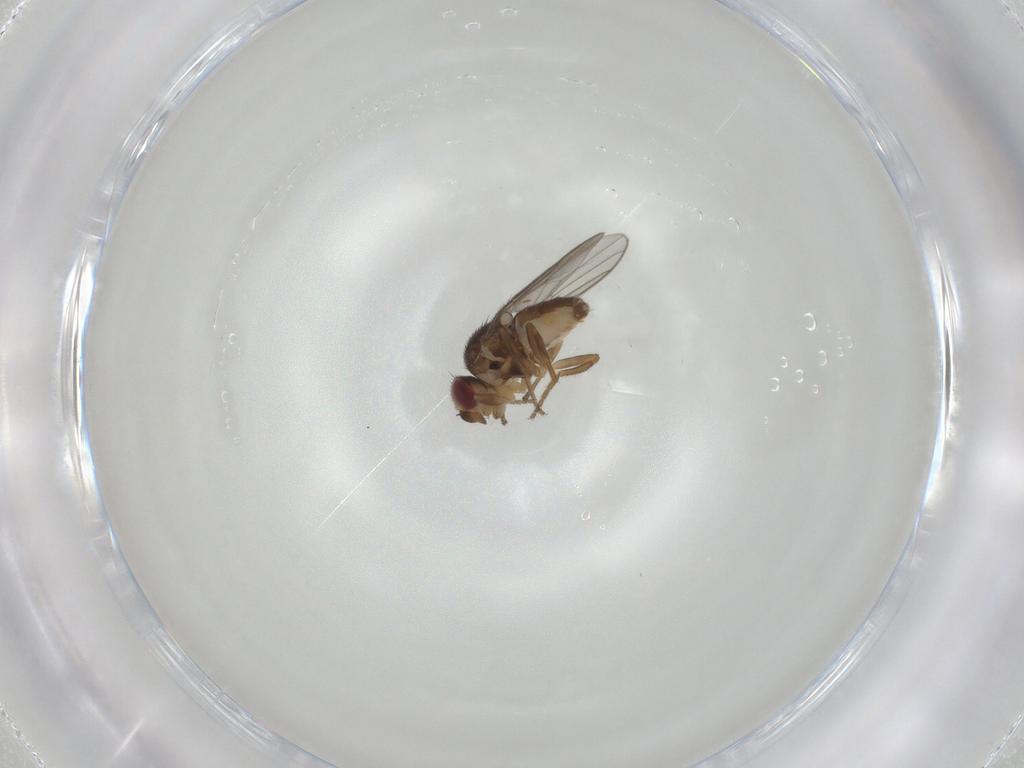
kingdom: Animalia
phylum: Arthropoda
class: Insecta
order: Diptera
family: Chloropidae
